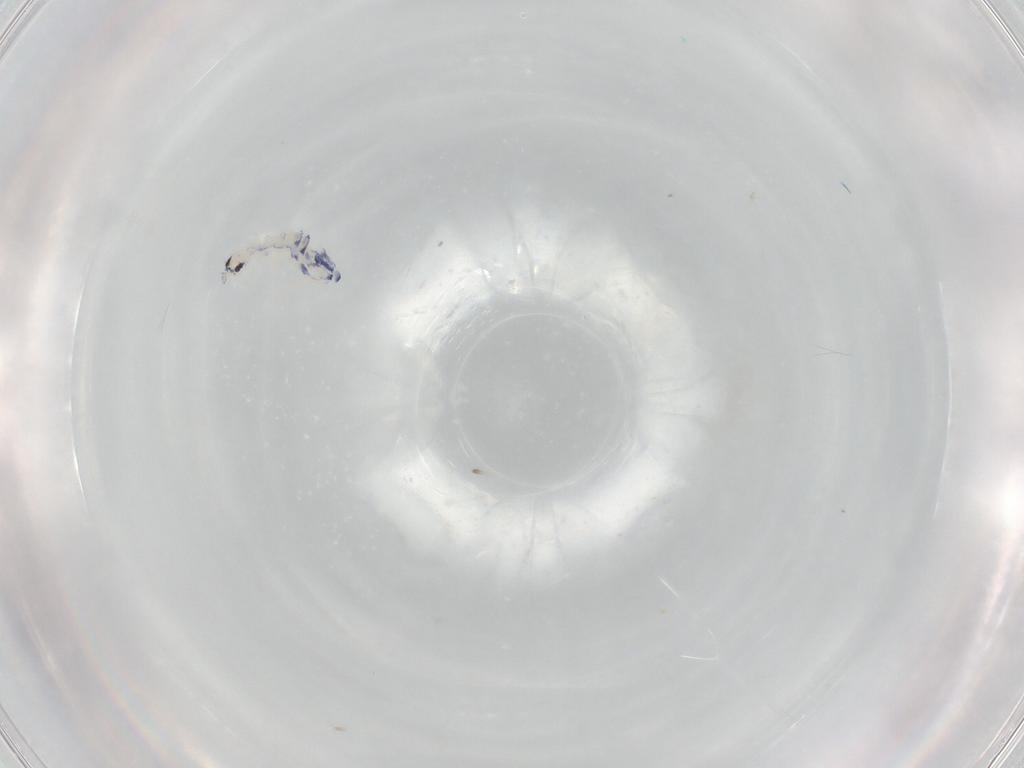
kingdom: Animalia
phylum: Arthropoda
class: Collembola
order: Entomobryomorpha
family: Entomobryidae
